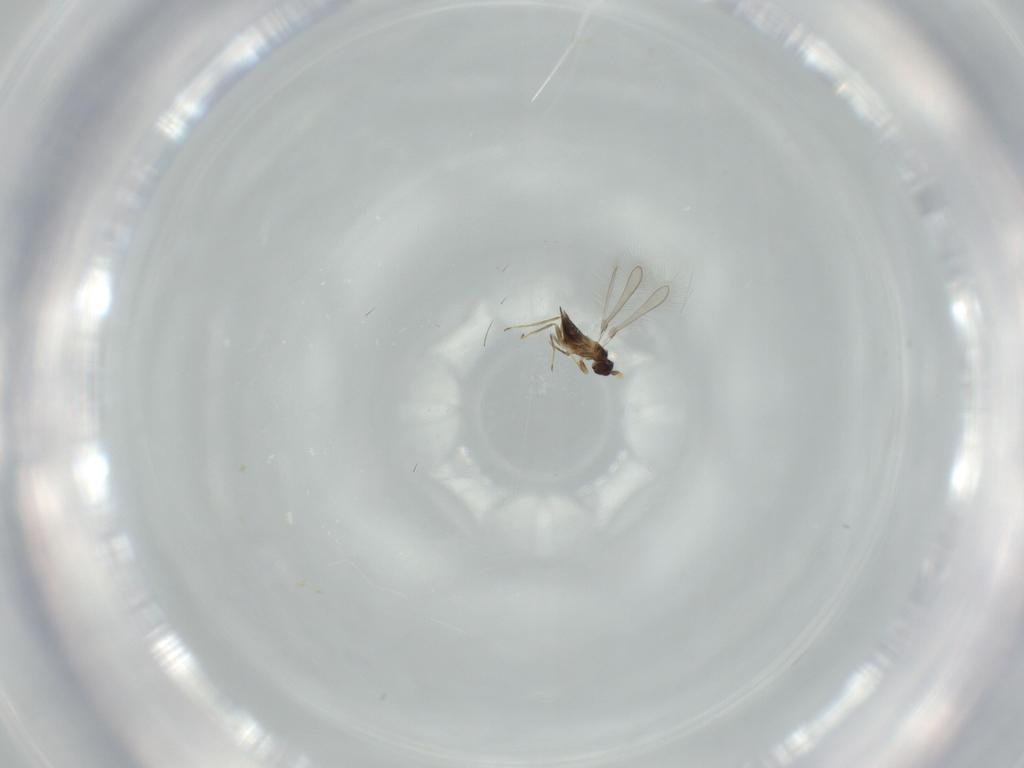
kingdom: Animalia
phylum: Arthropoda
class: Insecta
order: Hymenoptera
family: Mymaridae
